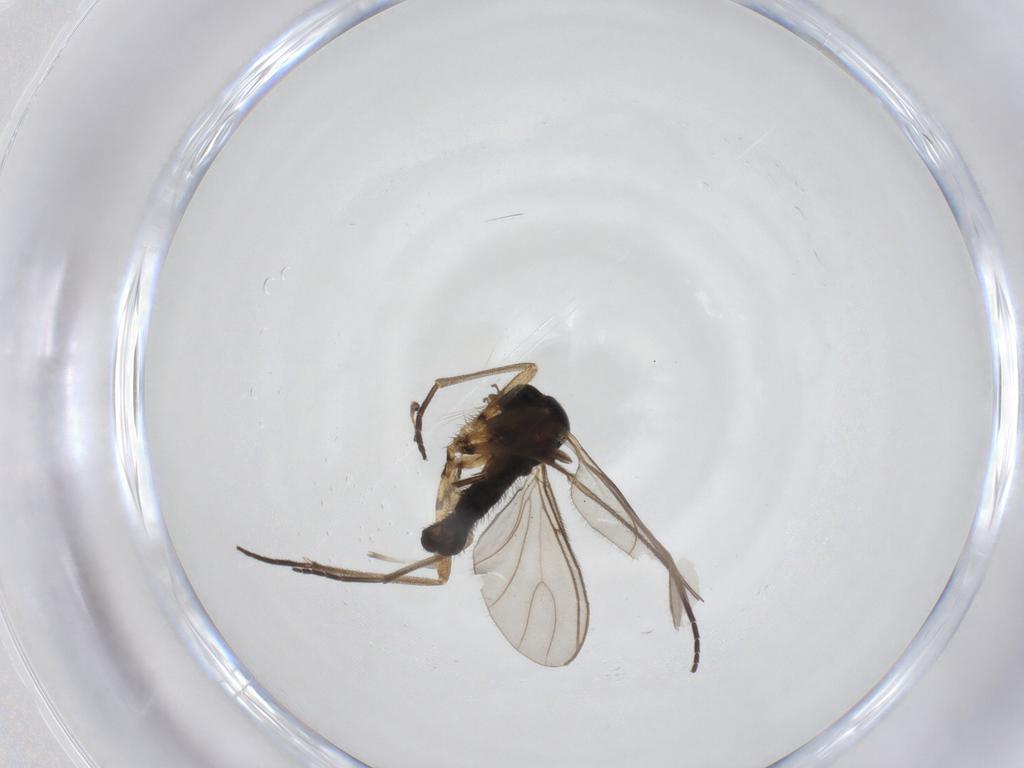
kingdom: Animalia
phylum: Arthropoda
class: Insecta
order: Diptera
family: Sciaridae
